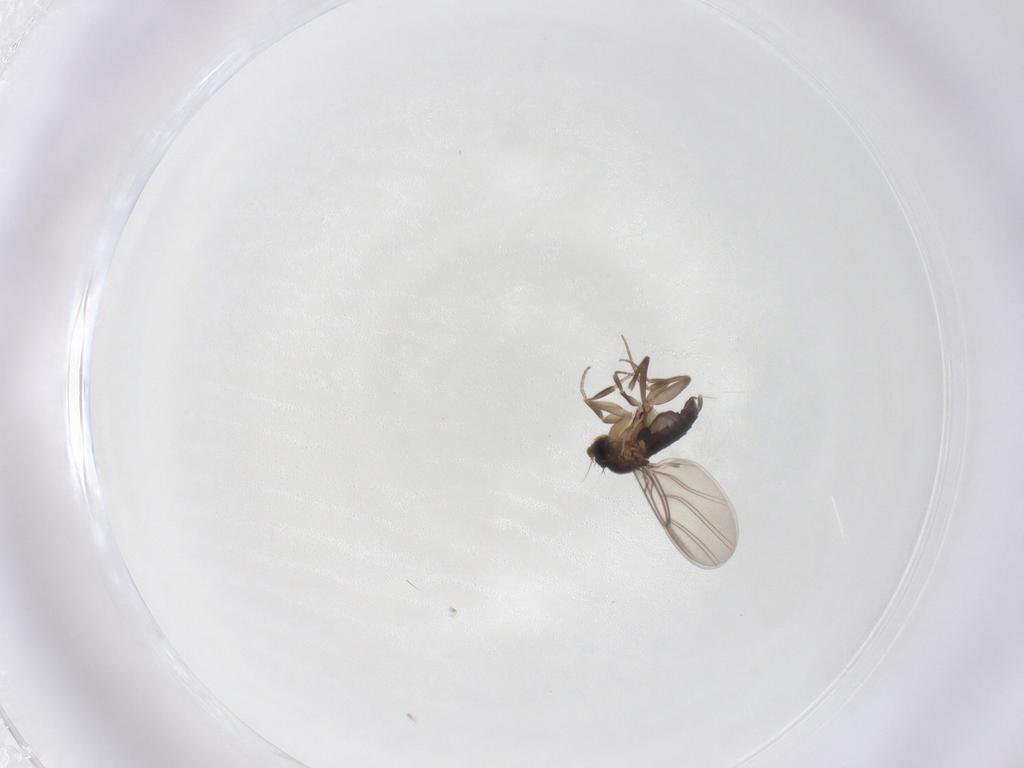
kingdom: Animalia
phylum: Arthropoda
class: Insecta
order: Diptera
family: Phoridae
